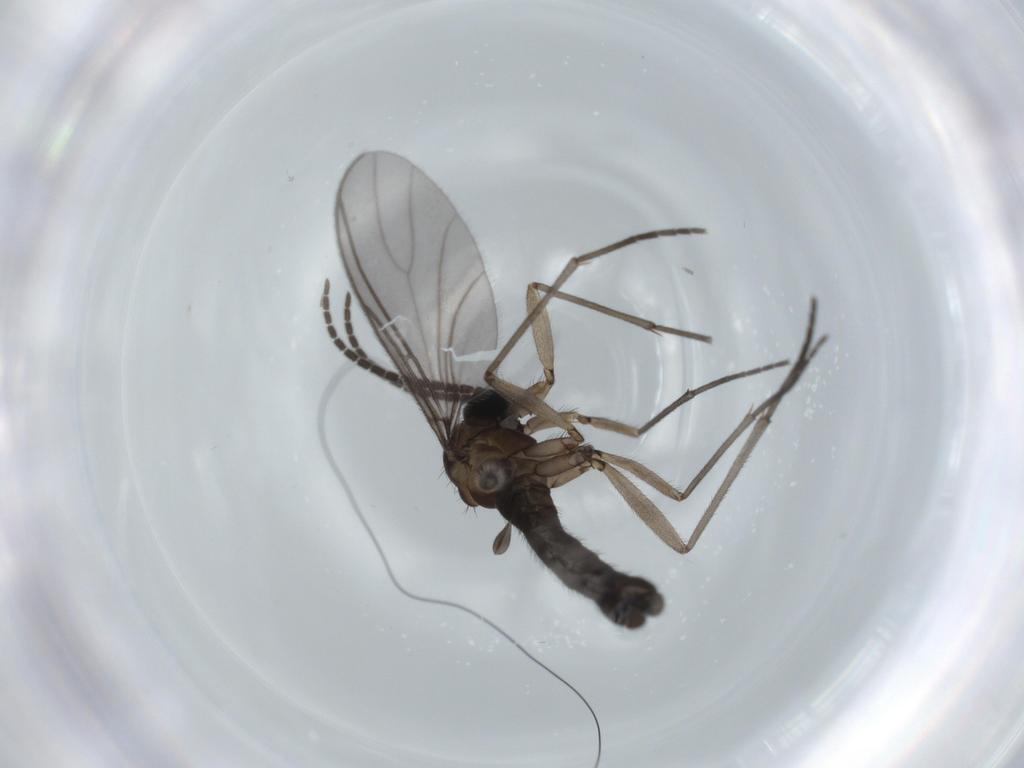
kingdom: Animalia
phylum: Arthropoda
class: Insecta
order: Diptera
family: Sciaridae
